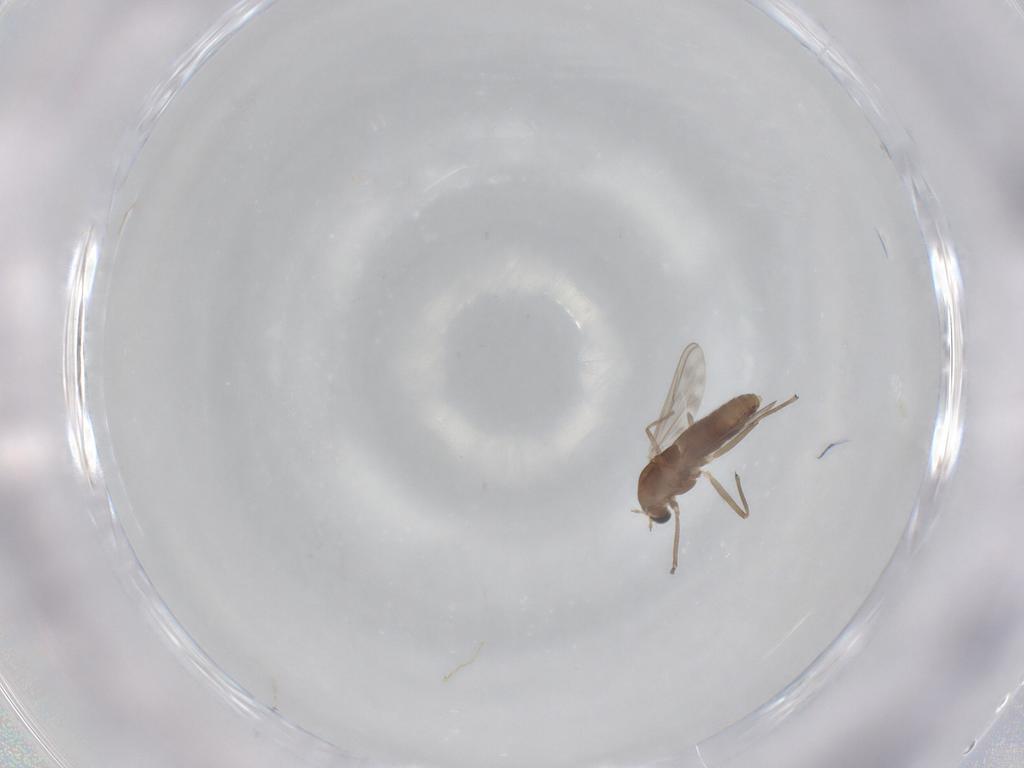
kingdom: Animalia
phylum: Arthropoda
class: Insecta
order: Diptera
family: Chironomidae
